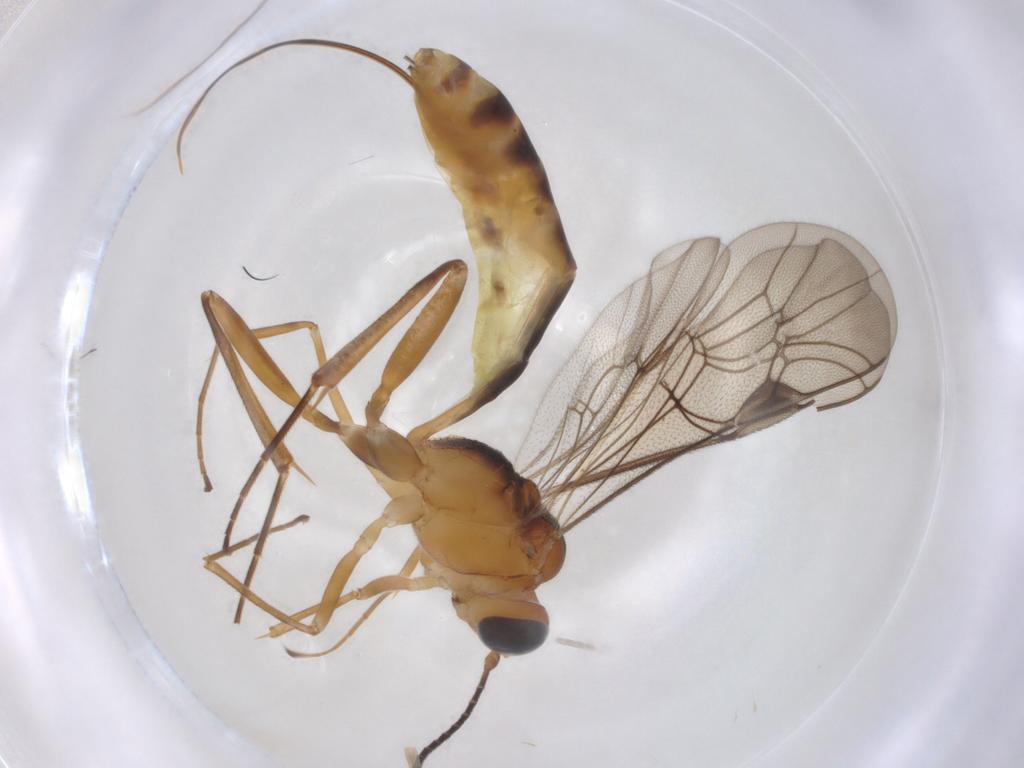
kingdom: Animalia
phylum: Arthropoda
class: Insecta
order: Hymenoptera
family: Ichneumonidae
